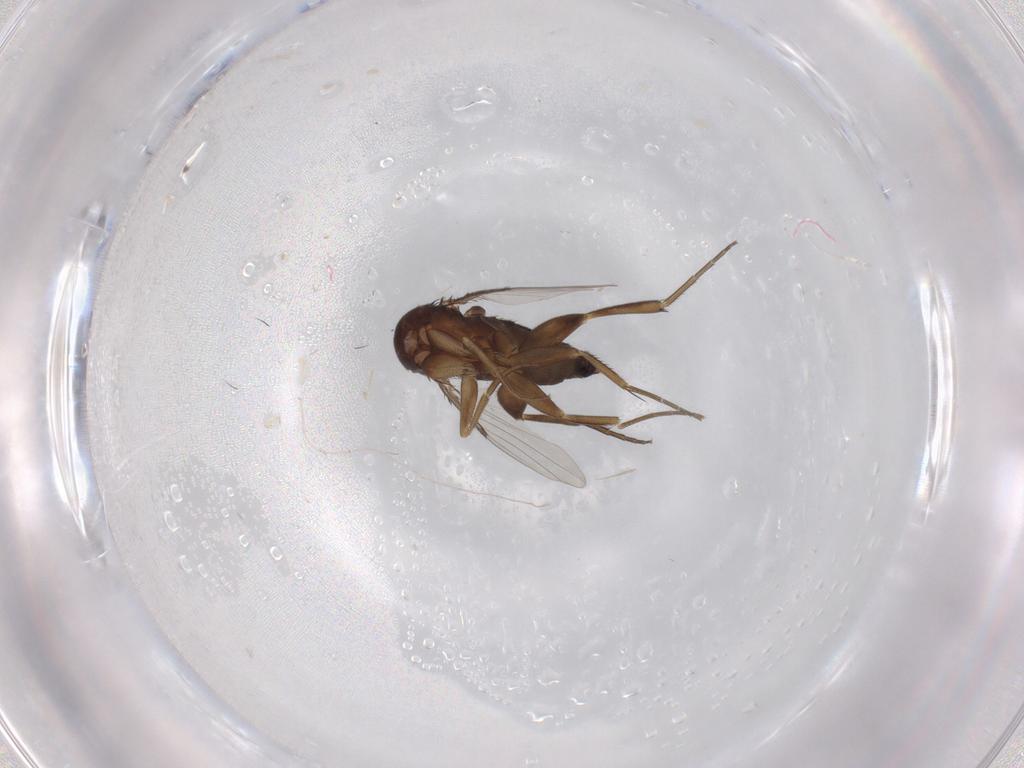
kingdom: Animalia
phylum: Arthropoda
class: Insecta
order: Diptera
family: Phoridae
